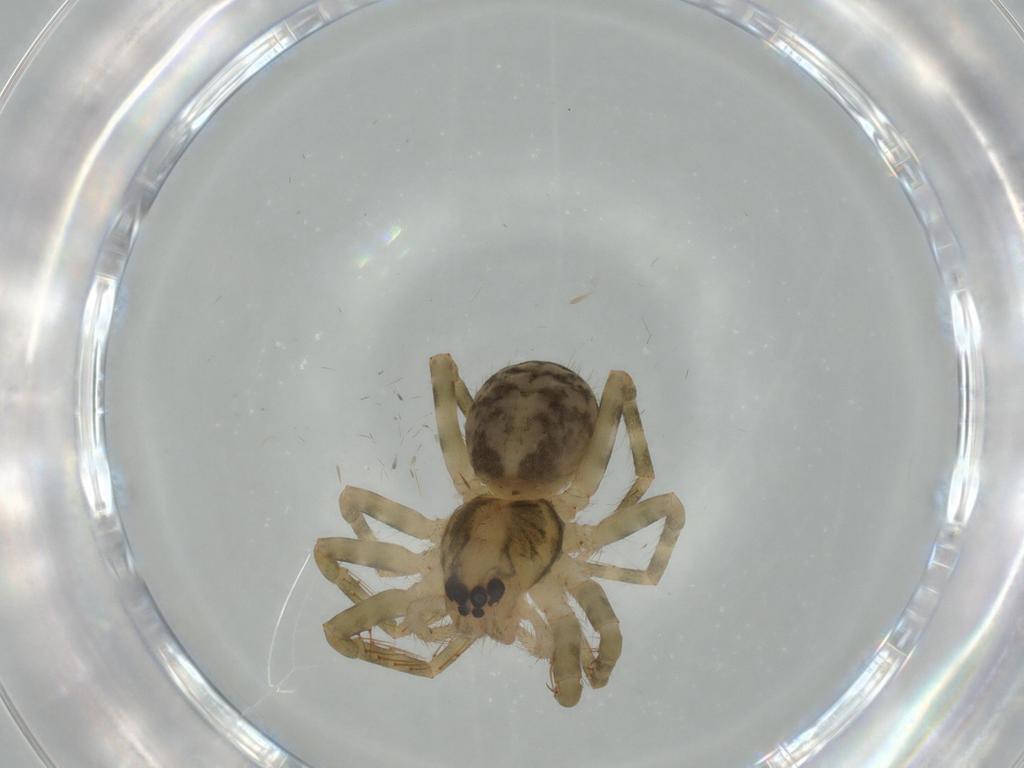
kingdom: Animalia
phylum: Arthropoda
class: Arachnida
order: Araneae
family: Ctenidae
